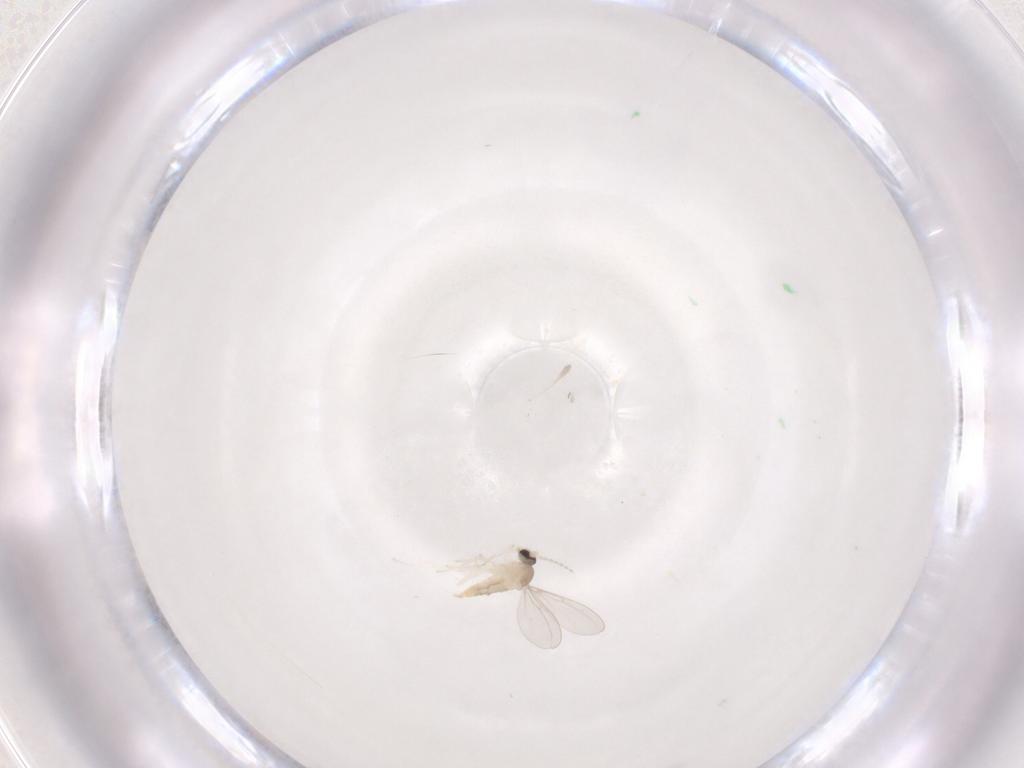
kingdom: Animalia
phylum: Arthropoda
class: Insecta
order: Diptera
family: Cecidomyiidae
